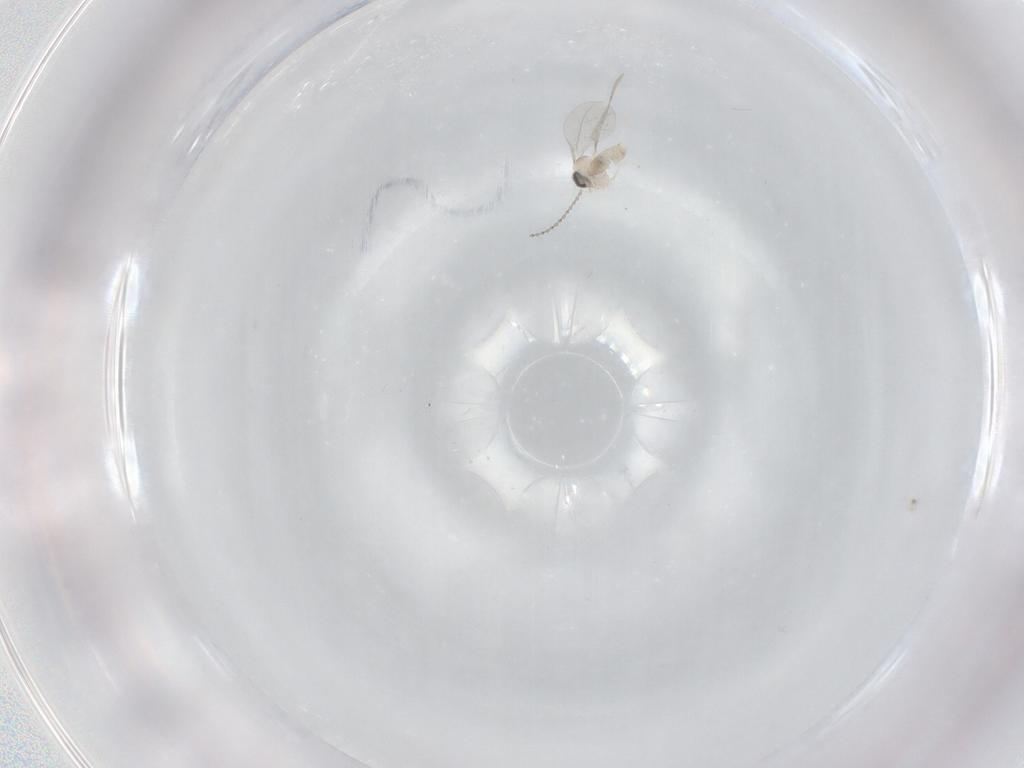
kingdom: Animalia
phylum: Arthropoda
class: Insecta
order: Diptera
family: Cecidomyiidae
